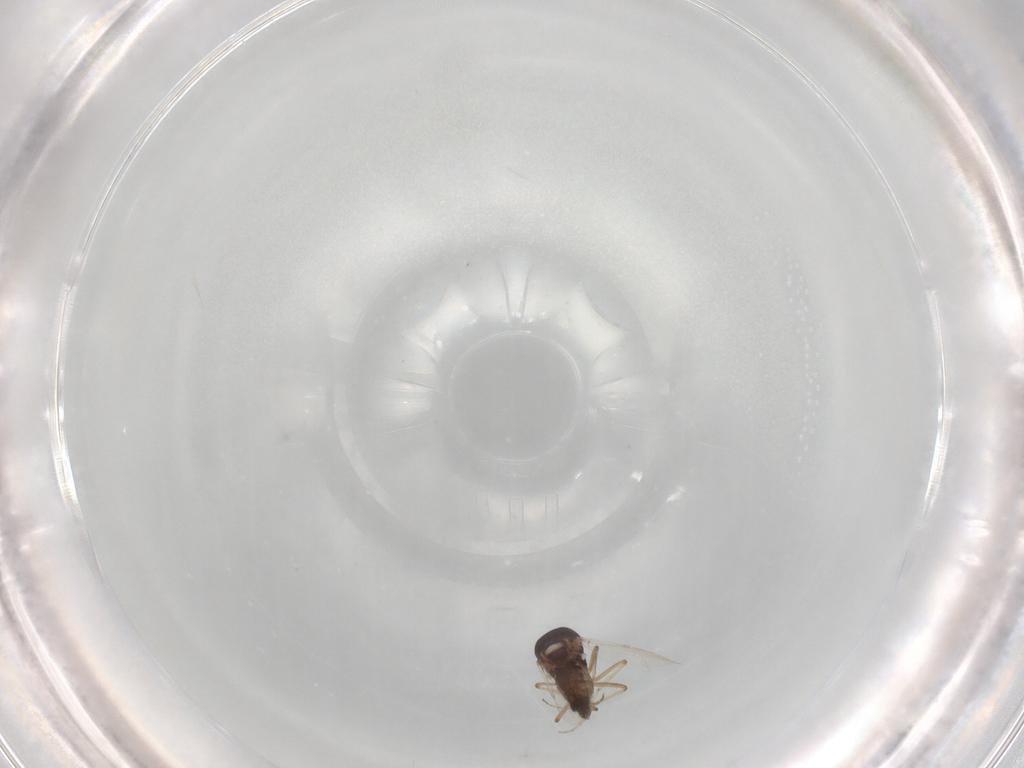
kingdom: Animalia
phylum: Arthropoda
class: Insecta
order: Diptera
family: Ceratopogonidae
